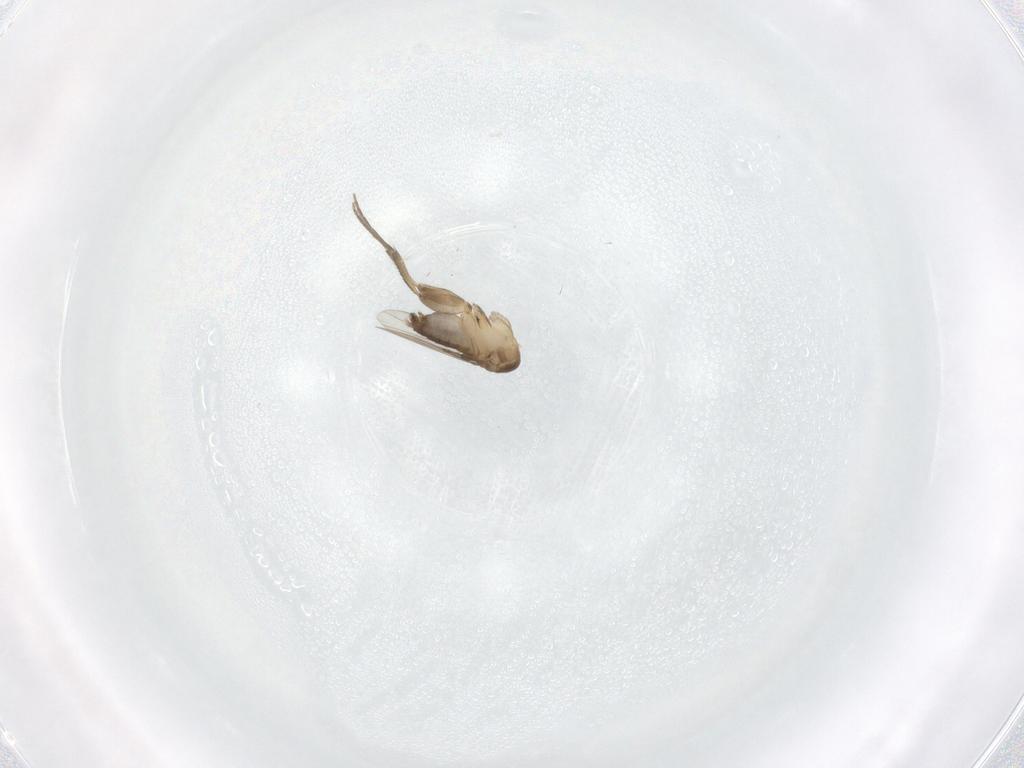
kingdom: Animalia
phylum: Arthropoda
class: Insecta
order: Diptera
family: Phoridae
